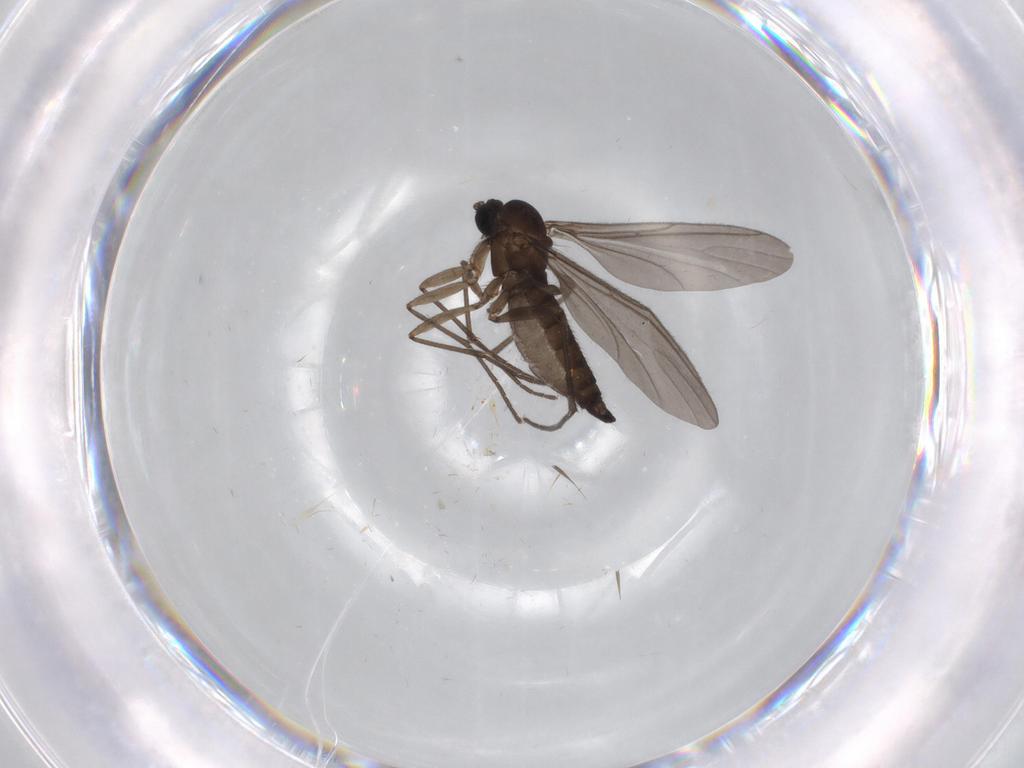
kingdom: Animalia
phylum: Arthropoda
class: Insecta
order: Diptera
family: Sciaridae
